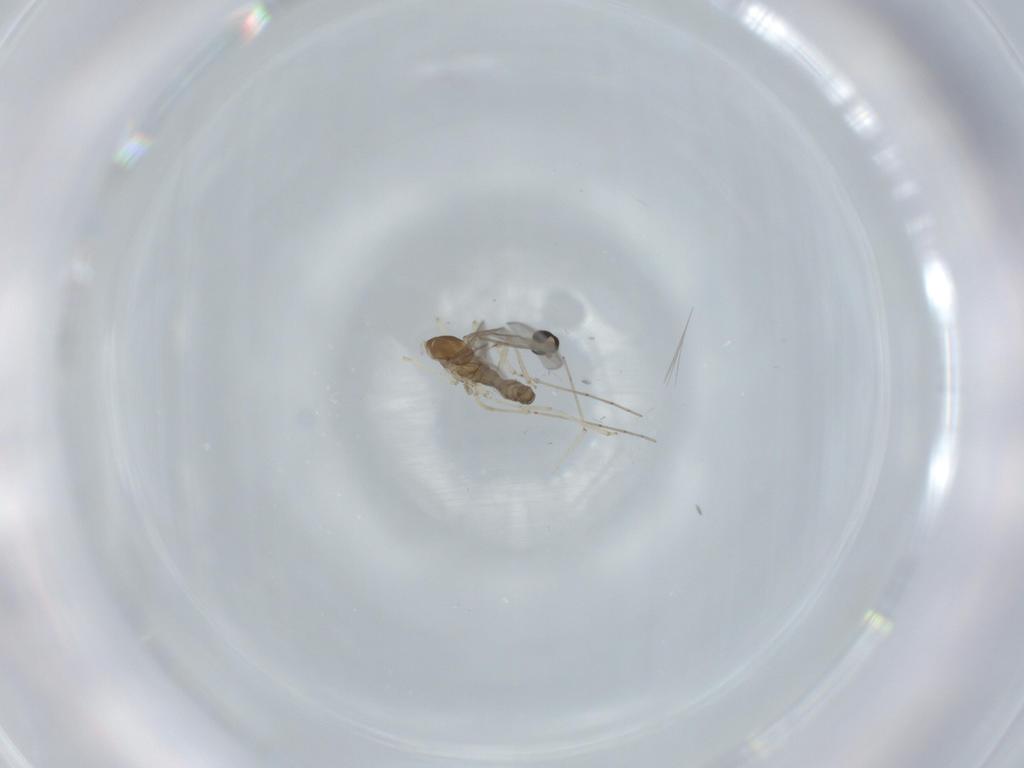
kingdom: Animalia
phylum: Arthropoda
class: Insecta
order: Diptera
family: Cecidomyiidae
